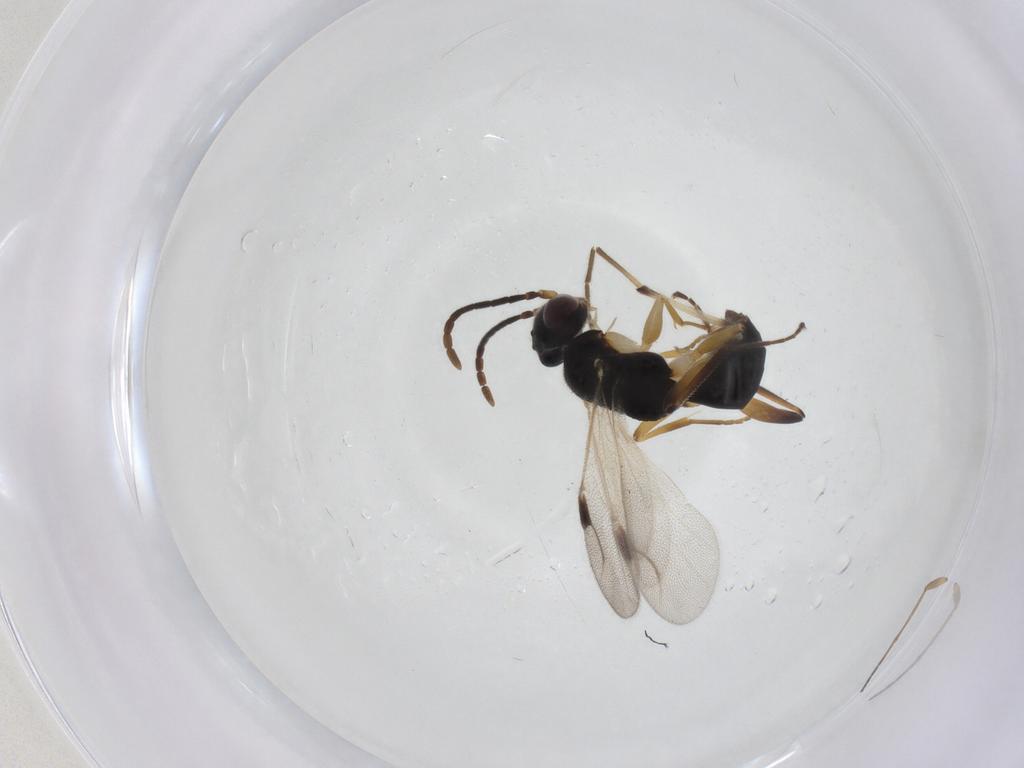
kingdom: Animalia
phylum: Arthropoda
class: Insecta
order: Hymenoptera
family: Dryinidae
